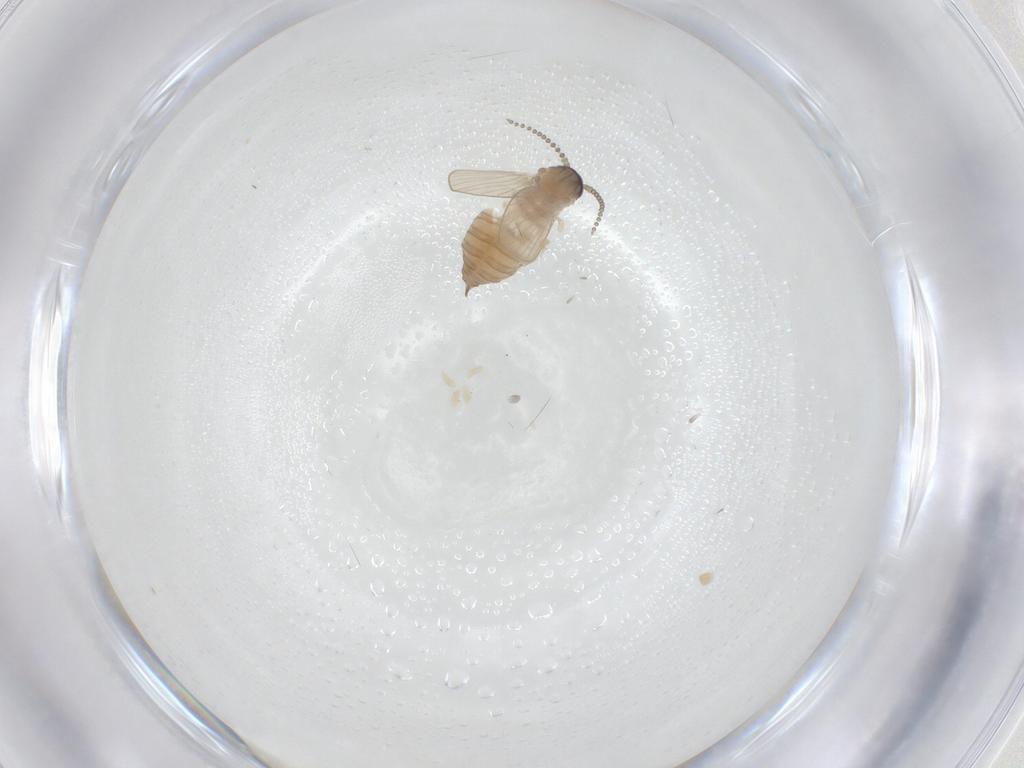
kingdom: Animalia
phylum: Arthropoda
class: Insecta
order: Diptera
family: Psychodidae
